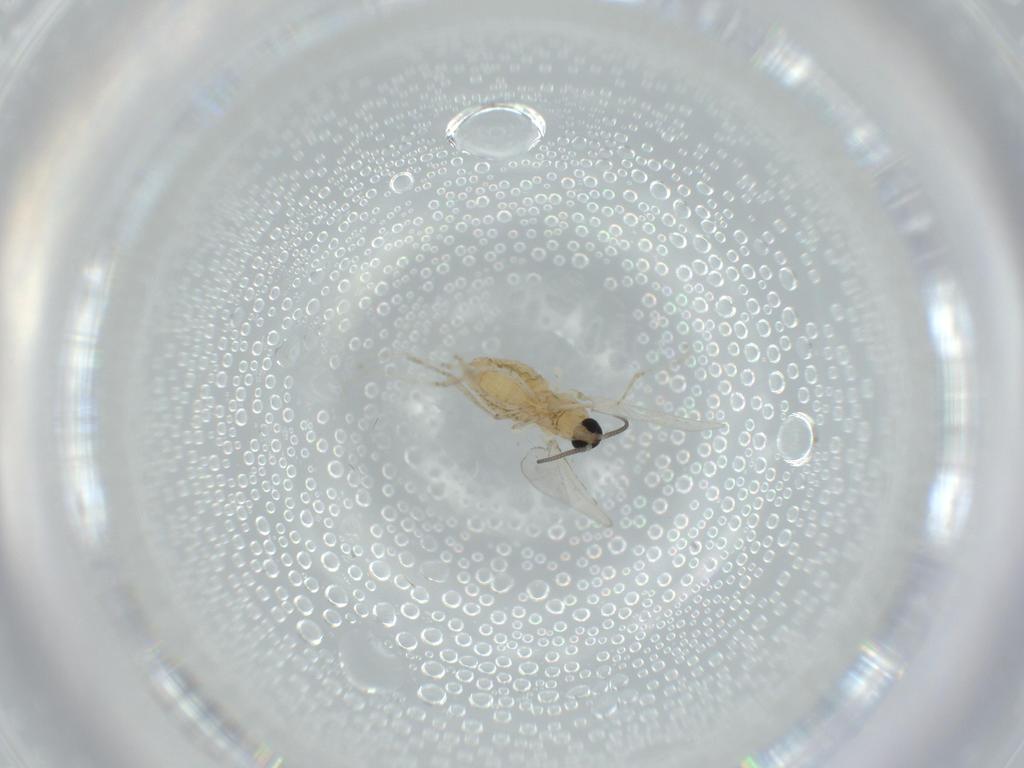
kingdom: Animalia
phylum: Arthropoda
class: Insecta
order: Diptera
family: Cecidomyiidae
